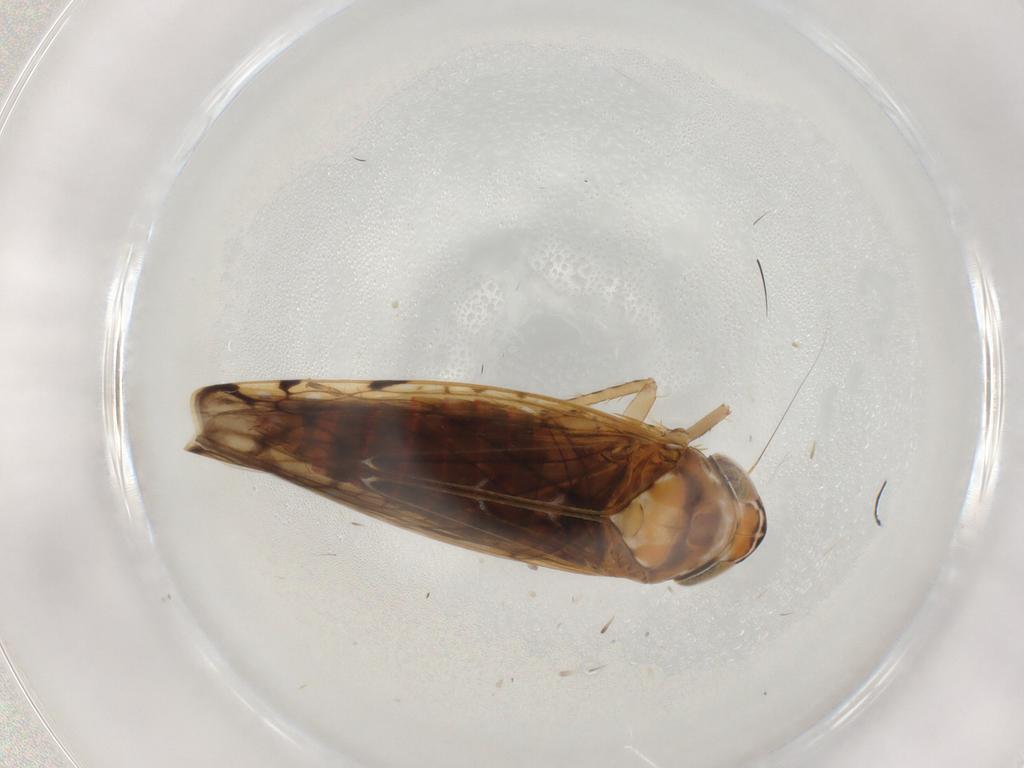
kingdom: Animalia
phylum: Arthropoda
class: Insecta
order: Hemiptera
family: Cicadellidae
